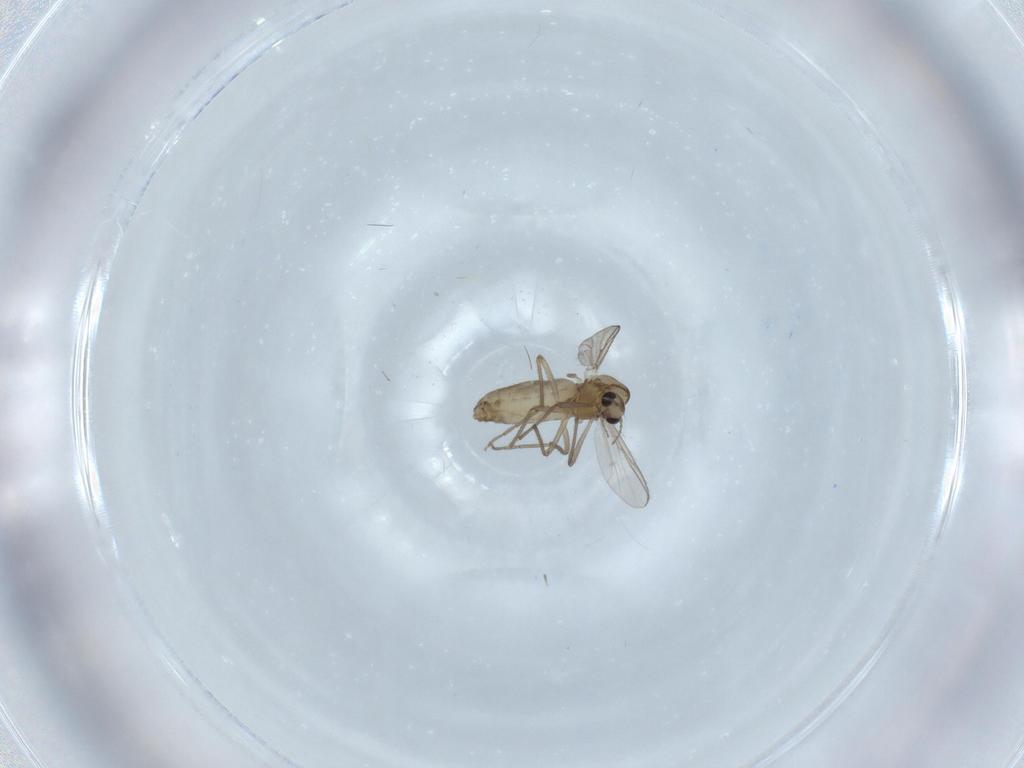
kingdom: Animalia
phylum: Arthropoda
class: Insecta
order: Diptera
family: Chironomidae
